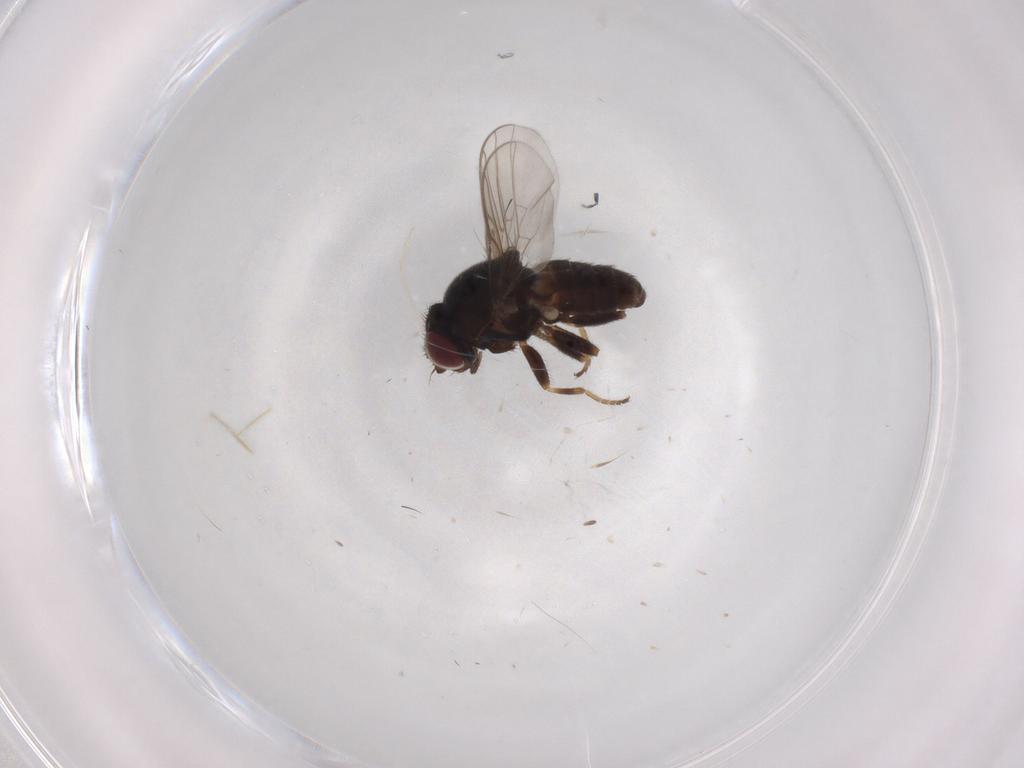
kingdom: Animalia
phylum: Arthropoda
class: Insecta
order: Diptera
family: Chloropidae
